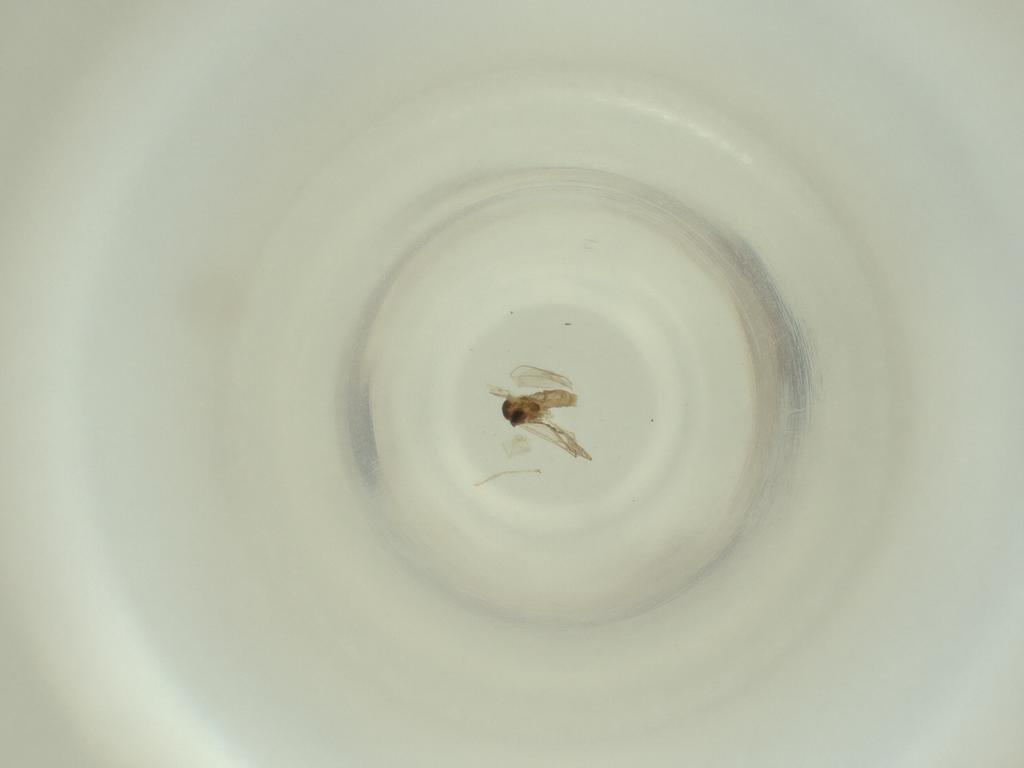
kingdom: Animalia
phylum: Arthropoda
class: Insecta
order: Diptera
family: Cecidomyiidae
